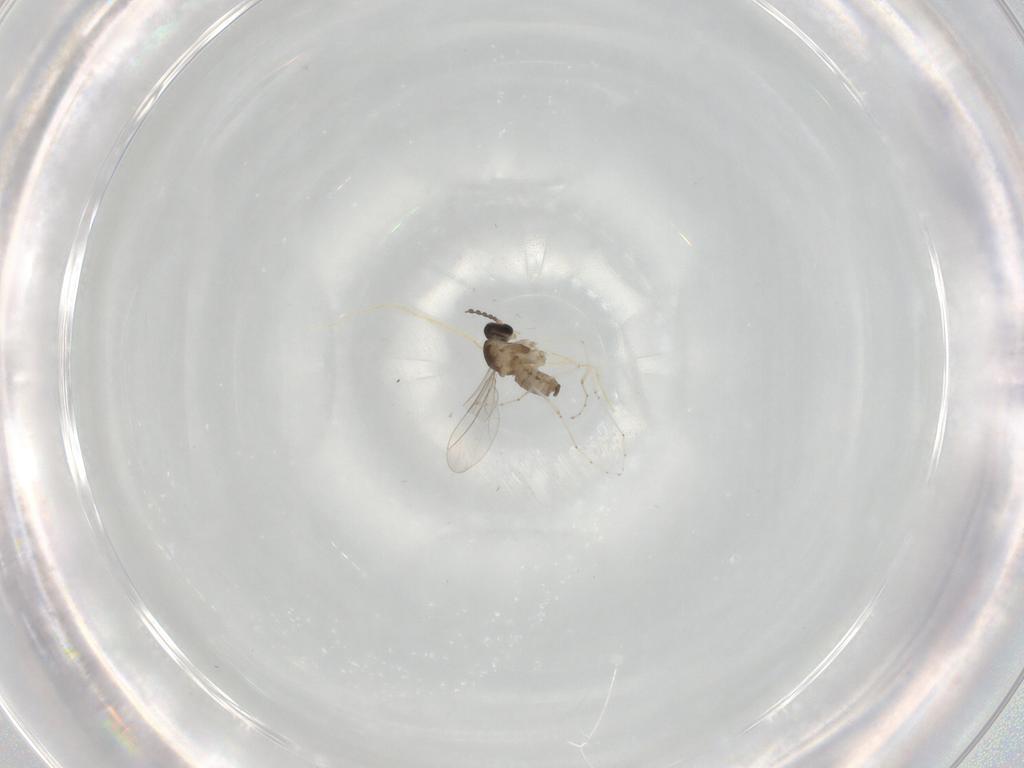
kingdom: Animalia
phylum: Arthropoda
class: Insecta
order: Diptera
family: Cecidomyiidae
